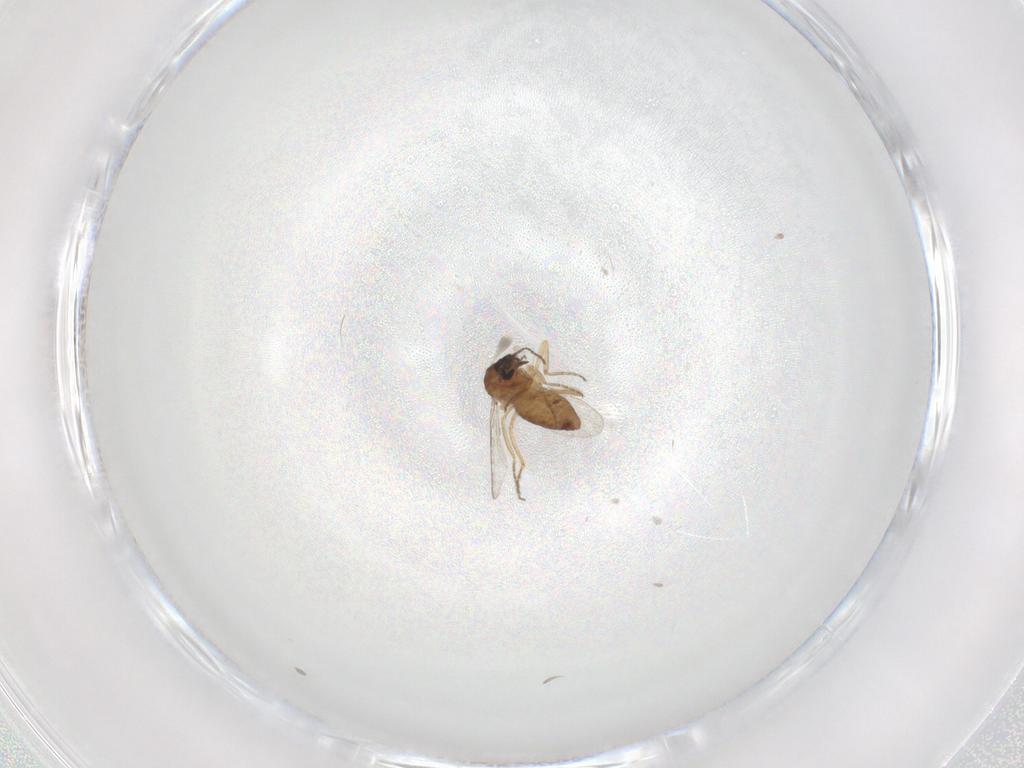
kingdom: Animalia
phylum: Arthropoda
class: Insecta
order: Diptera
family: Ceratopogonidae
